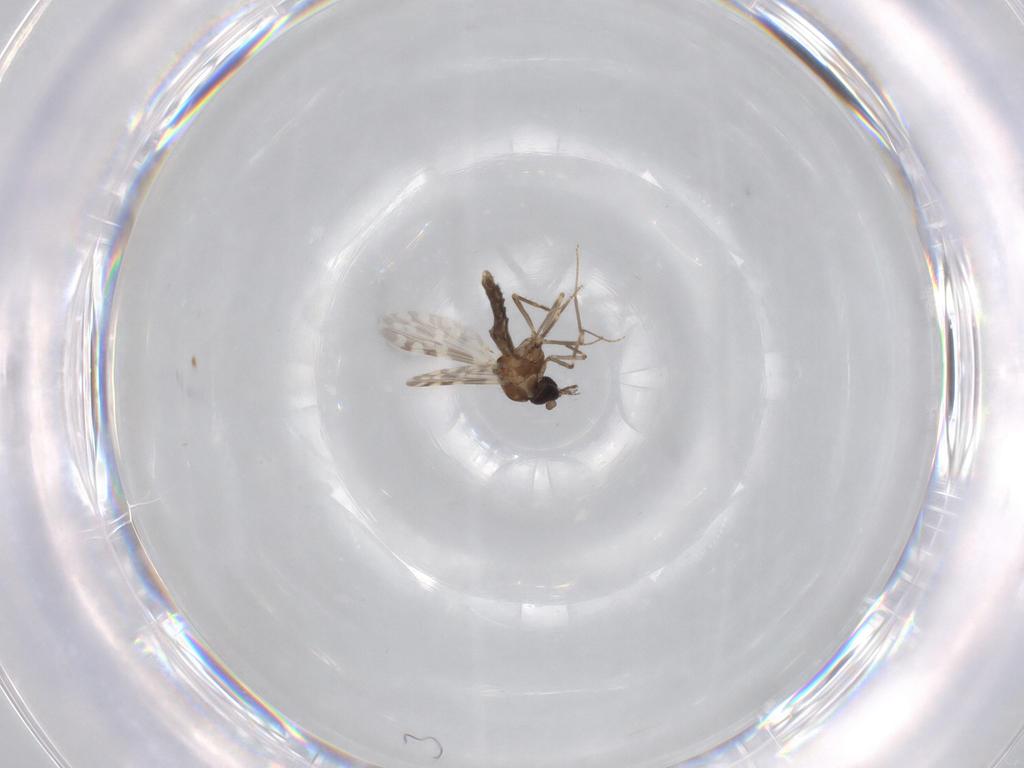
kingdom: Animalia
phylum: Arthropoda
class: Insecta
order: Diptera
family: Ceratopogonidae
